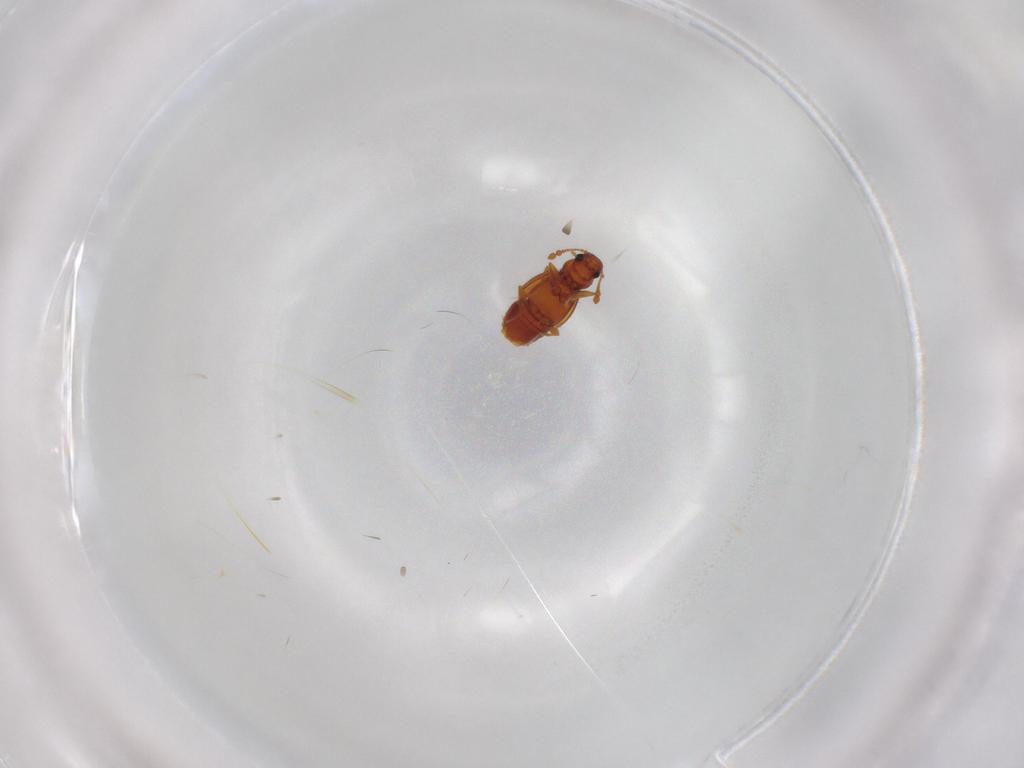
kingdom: Animalia
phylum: Arthropoda
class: Insecta
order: Coleoptera
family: Staphylinidae
